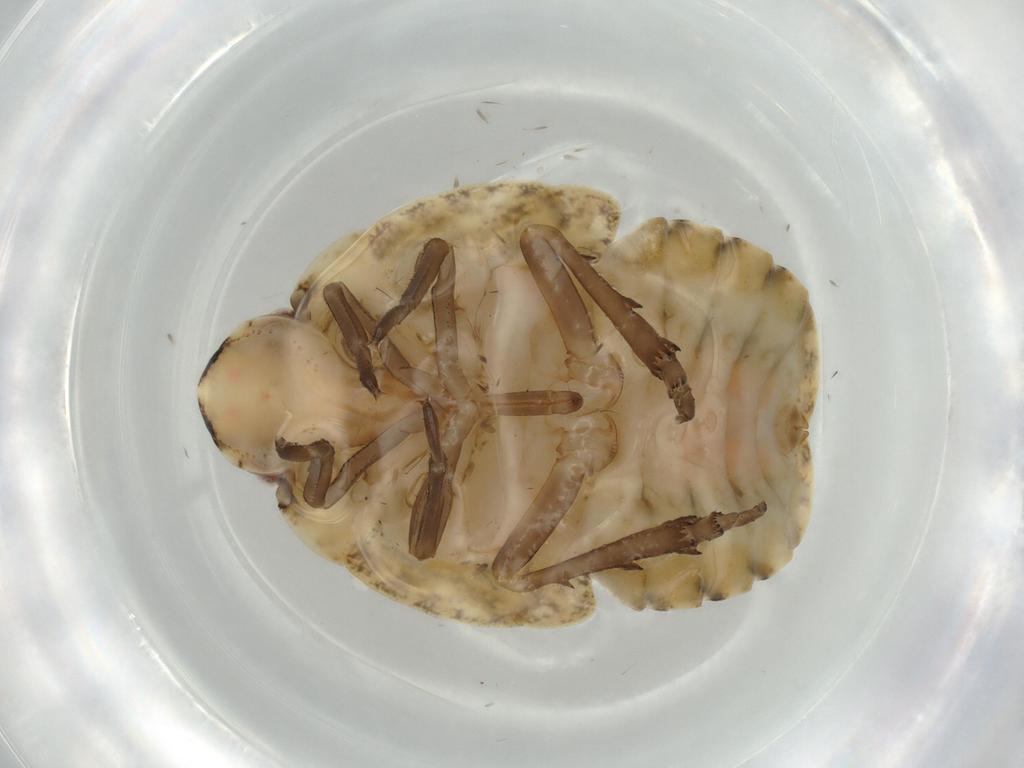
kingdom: Animalia
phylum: Arthropoda
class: Insecta
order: Hemiptera
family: Flatidae
